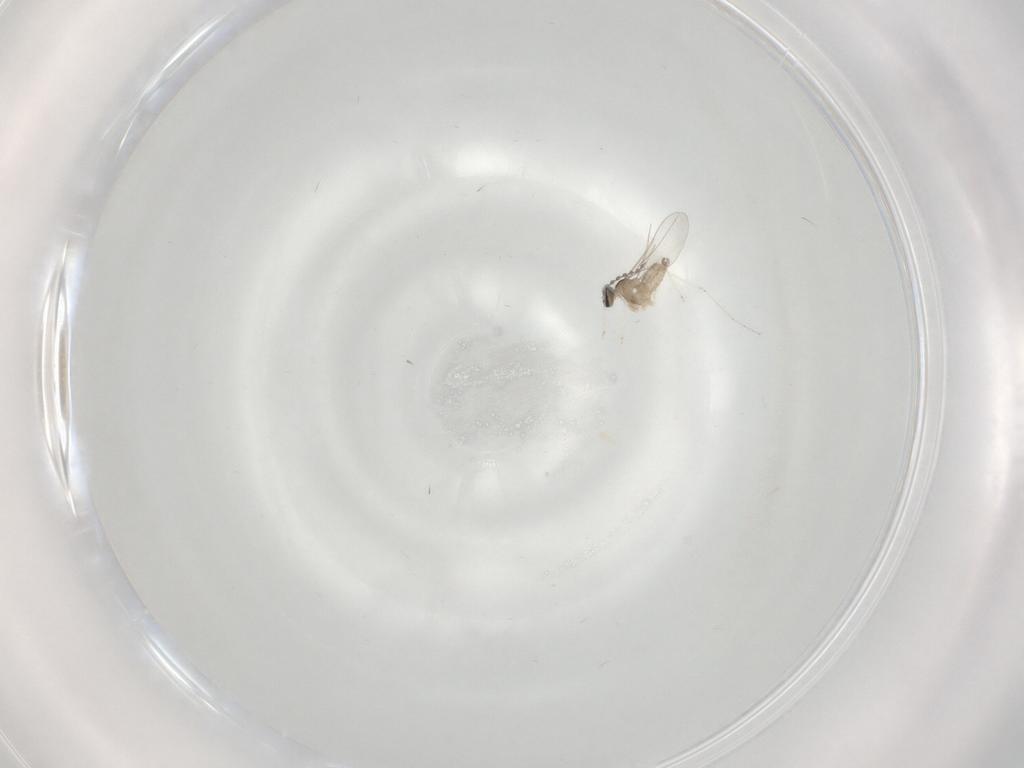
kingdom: Animalia
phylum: Arthropoda
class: Insecta
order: Diptera
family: Cecidomyiidae
